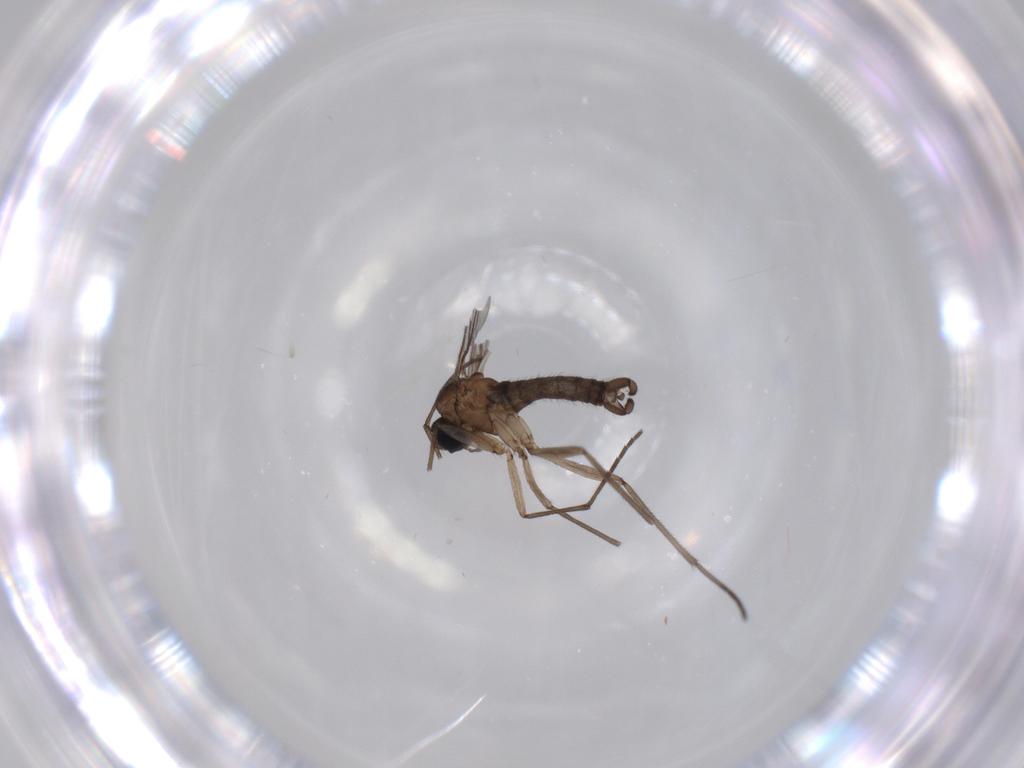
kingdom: Animalia
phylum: Arthropoda
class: Insecta
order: Diptera
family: Sciaridae
